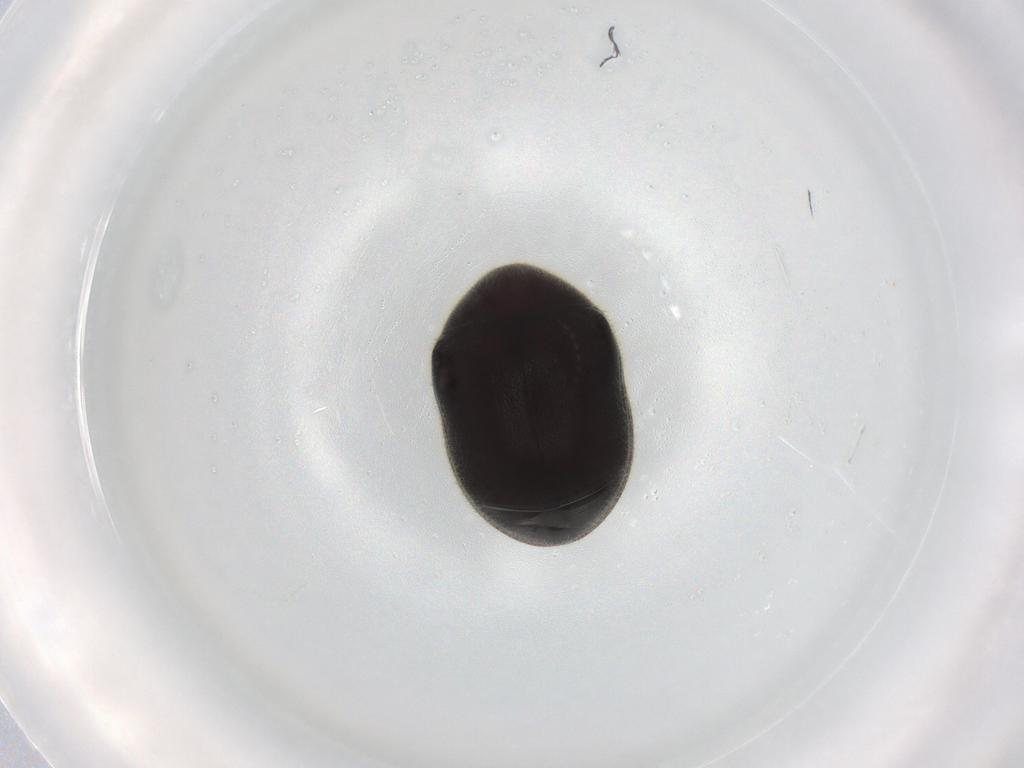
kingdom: Animalia
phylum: Arthropoda
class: Insecta
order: Coleoptera
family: Ptinidae
